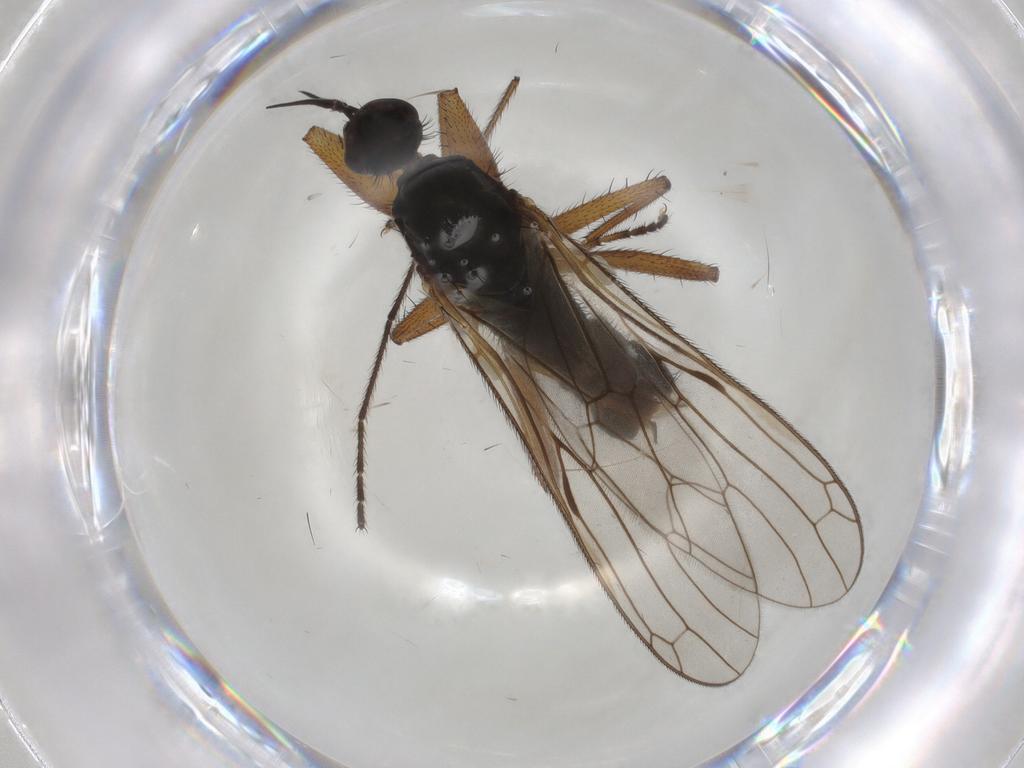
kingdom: Animalia
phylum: Arthropoda
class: Insecta
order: Diptera
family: Empididae
